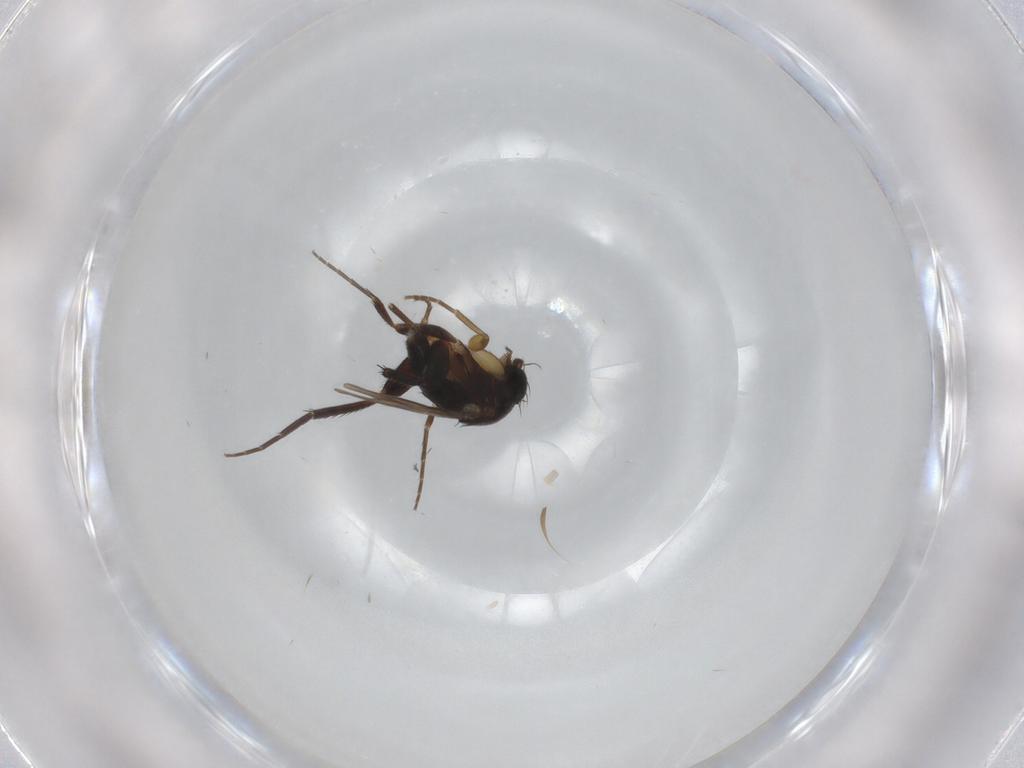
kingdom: Animalia
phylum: Arthropoda
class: Insecta
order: Diptera
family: Phoridae
